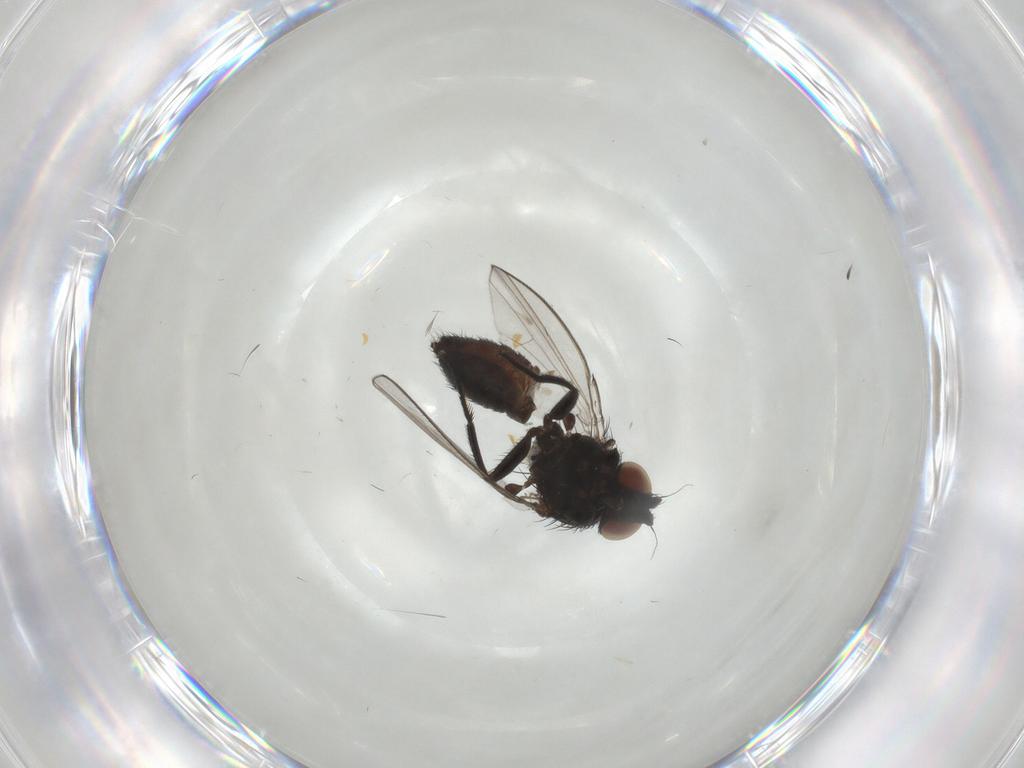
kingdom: Animalia
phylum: Arthropoda
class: Insecta
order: Diptera
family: Milichiidae
